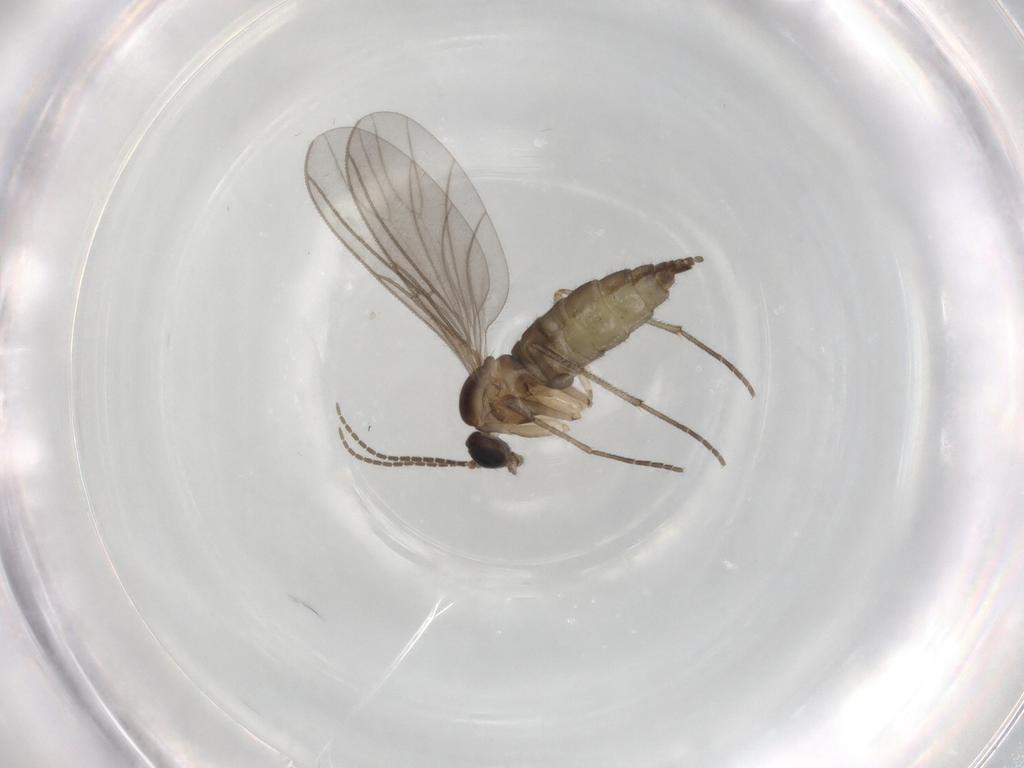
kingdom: Animalia
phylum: Arthropoda
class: Insecta
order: Diptera
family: Sciaridae
